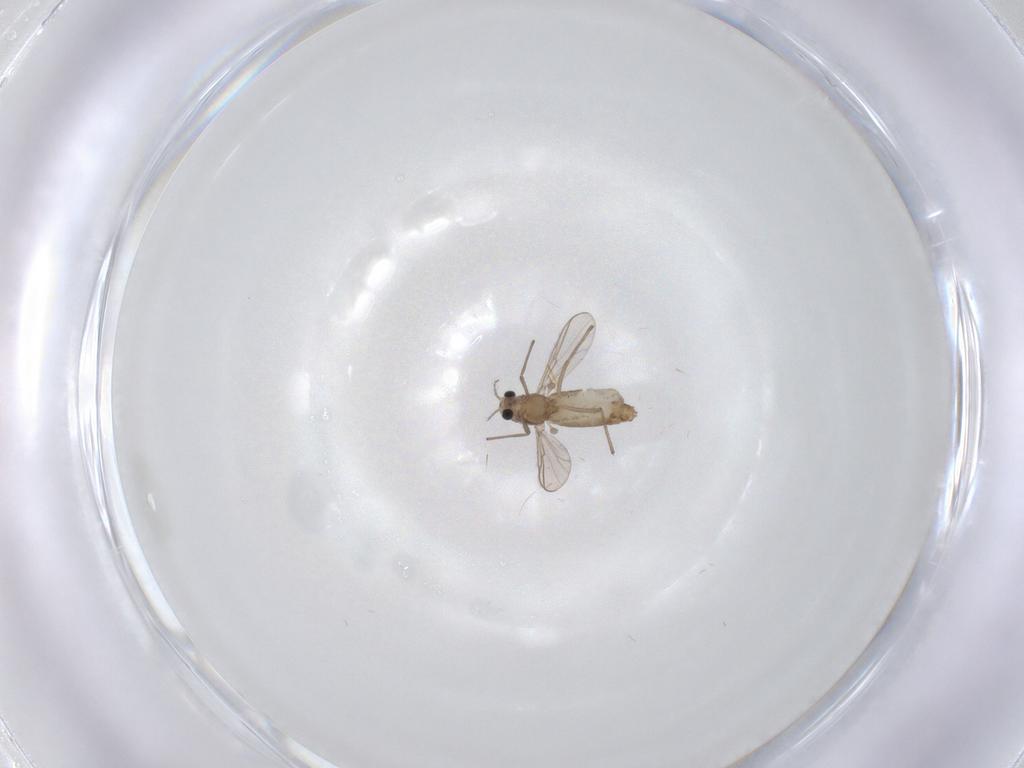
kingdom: Animalia
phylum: Arthropoda
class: Insecta
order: Diptera
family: Chironomidae
